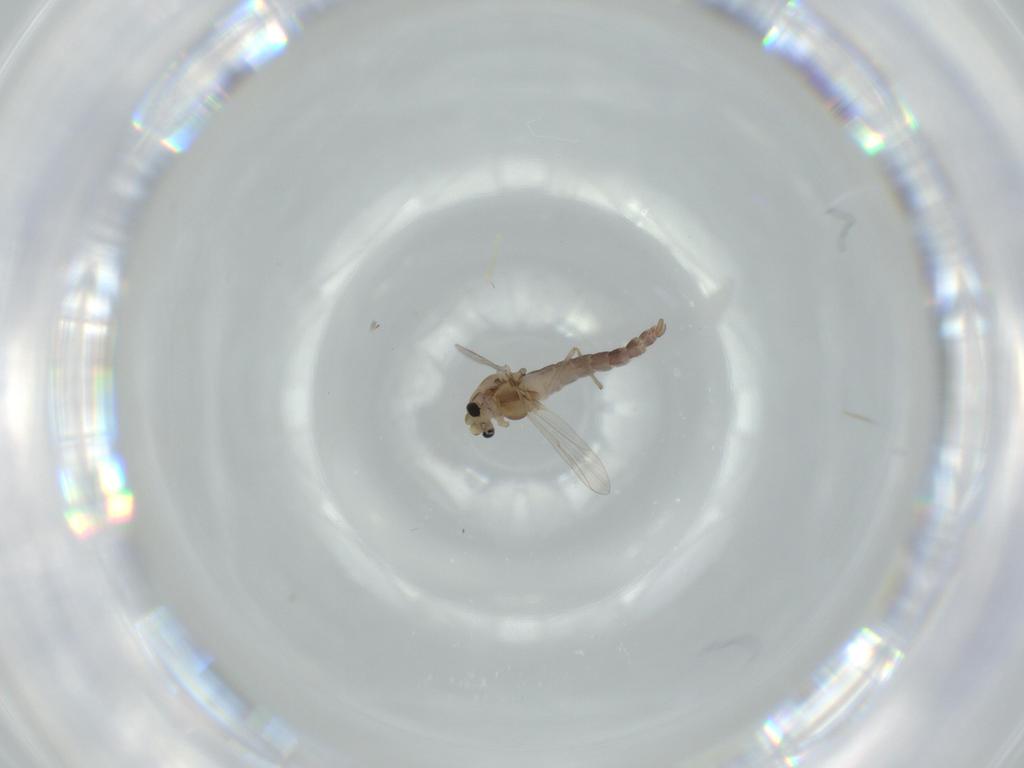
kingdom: Animalia
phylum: Arthropoda
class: Insecta
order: Diptera
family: Chironomidae
